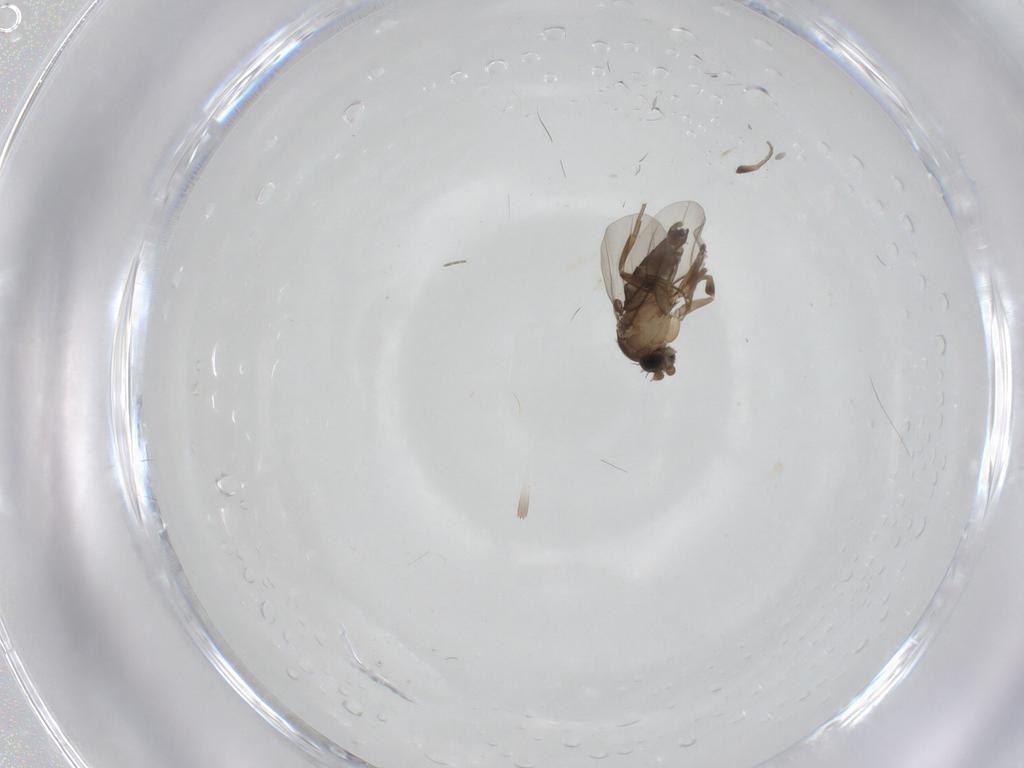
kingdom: Animalia
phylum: Arthropoda
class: Insecta
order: Diptera
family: Phoridae
